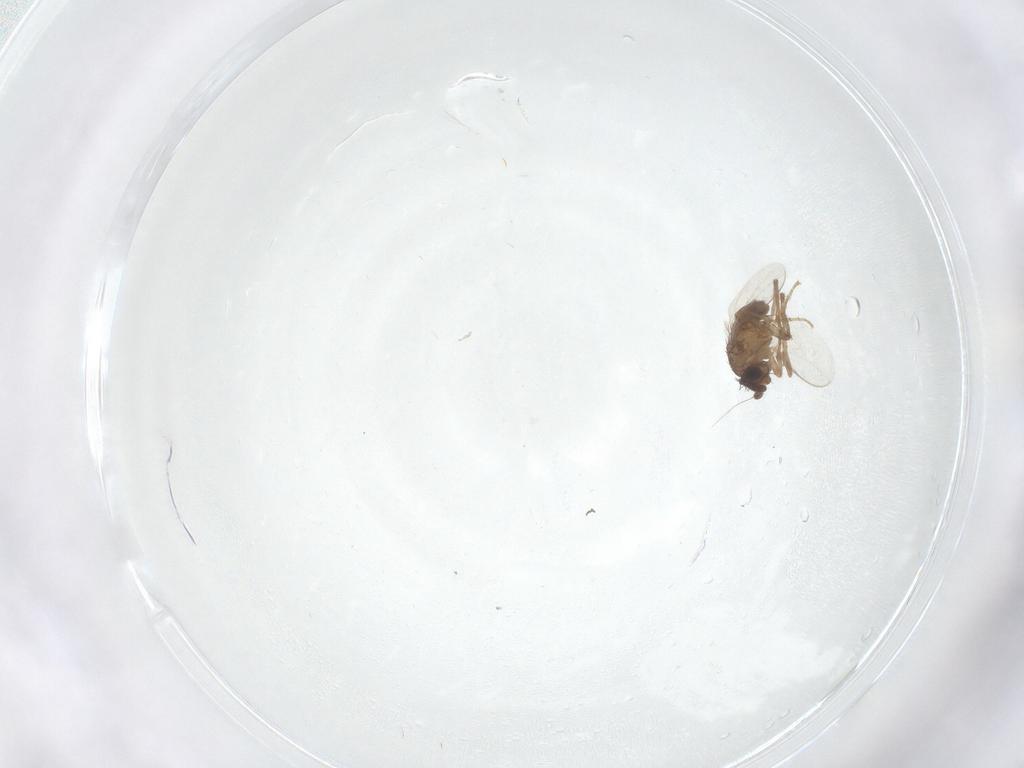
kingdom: Animalia
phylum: Arthropoda
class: Insecta
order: Diptera
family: Sphaeroceridae
